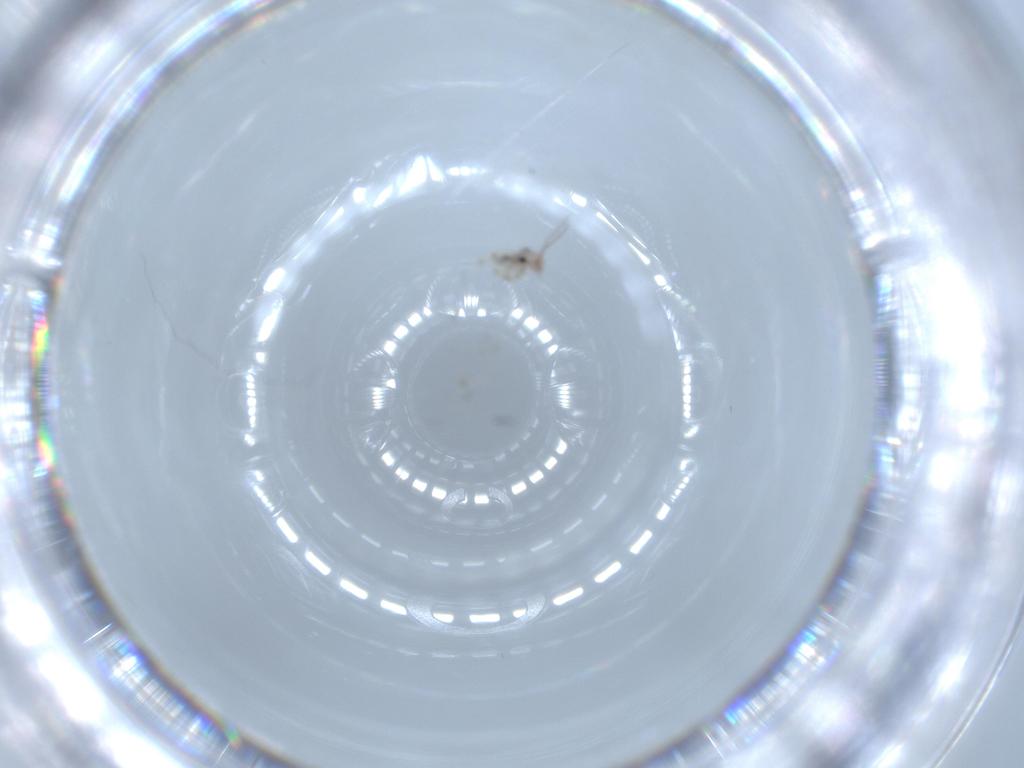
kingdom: Animalia
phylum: Arthropoda
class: Insecta
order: Psocodea
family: Lepidopsocidae
